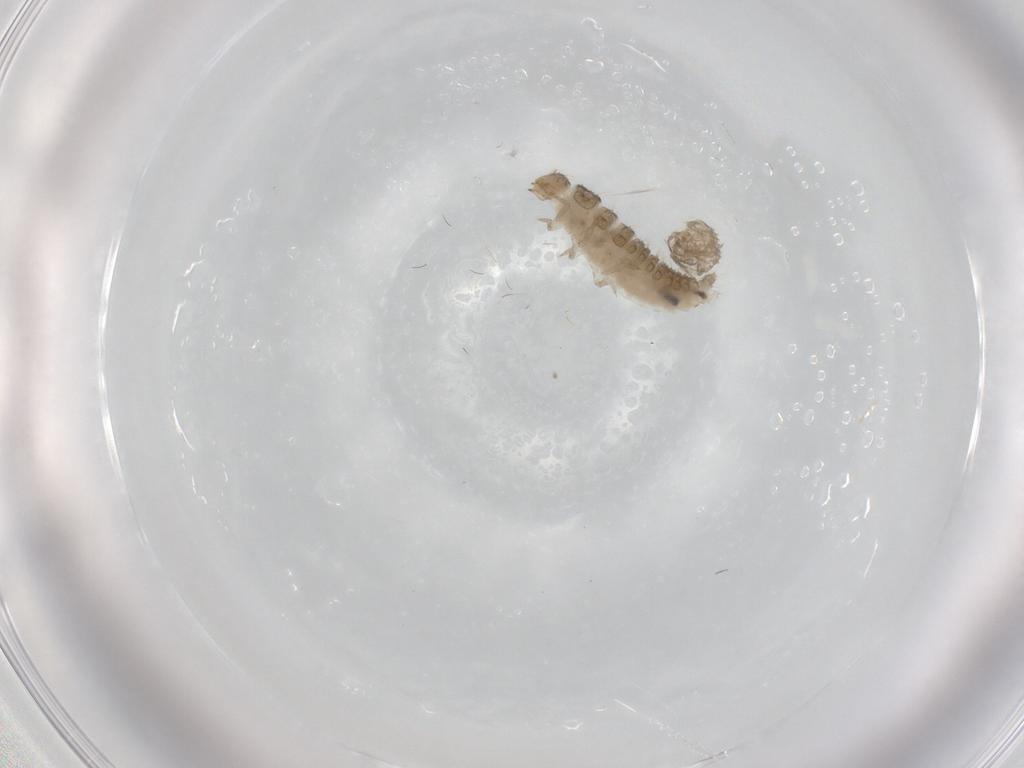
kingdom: Animalia
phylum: Arthropoda
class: Insecta
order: Coleoptera
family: Erotylidae
